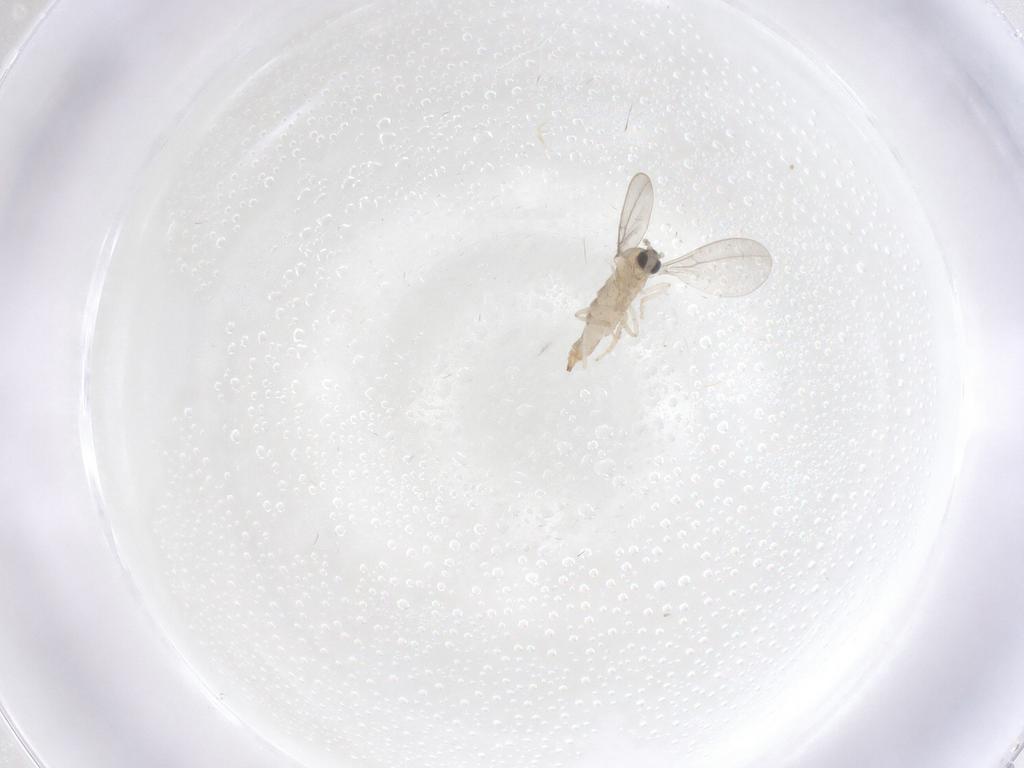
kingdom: Animalia
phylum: Arthropoda
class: Insecta
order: Diptera
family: Cecidomyiidae
